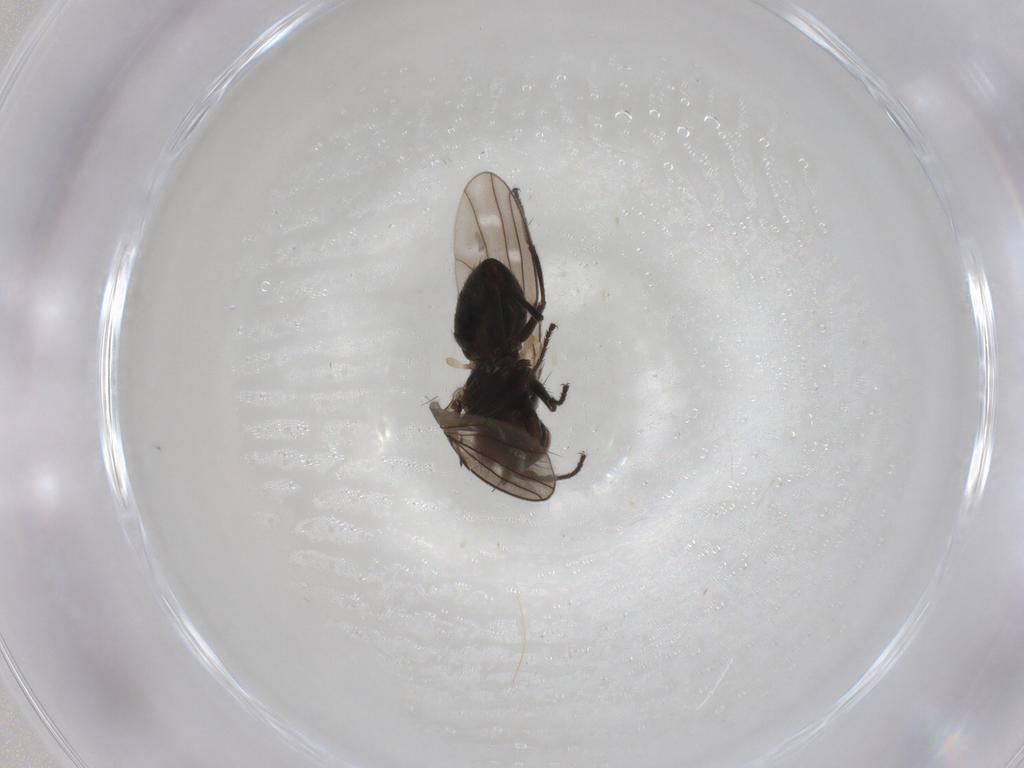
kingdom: Animalia
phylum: Arthropoda
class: Insecta
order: Diptera
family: Ephydridae
